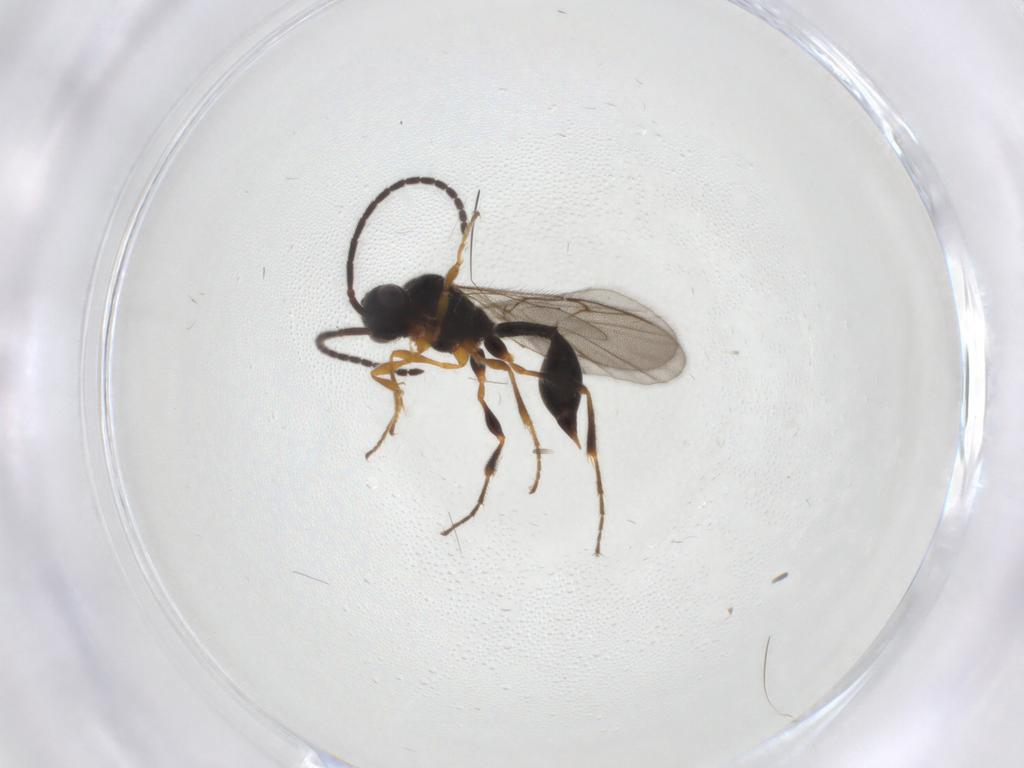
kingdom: Animalia
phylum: Arthropoda
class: Insecta
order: Hymenoptera
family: Diapriidae
